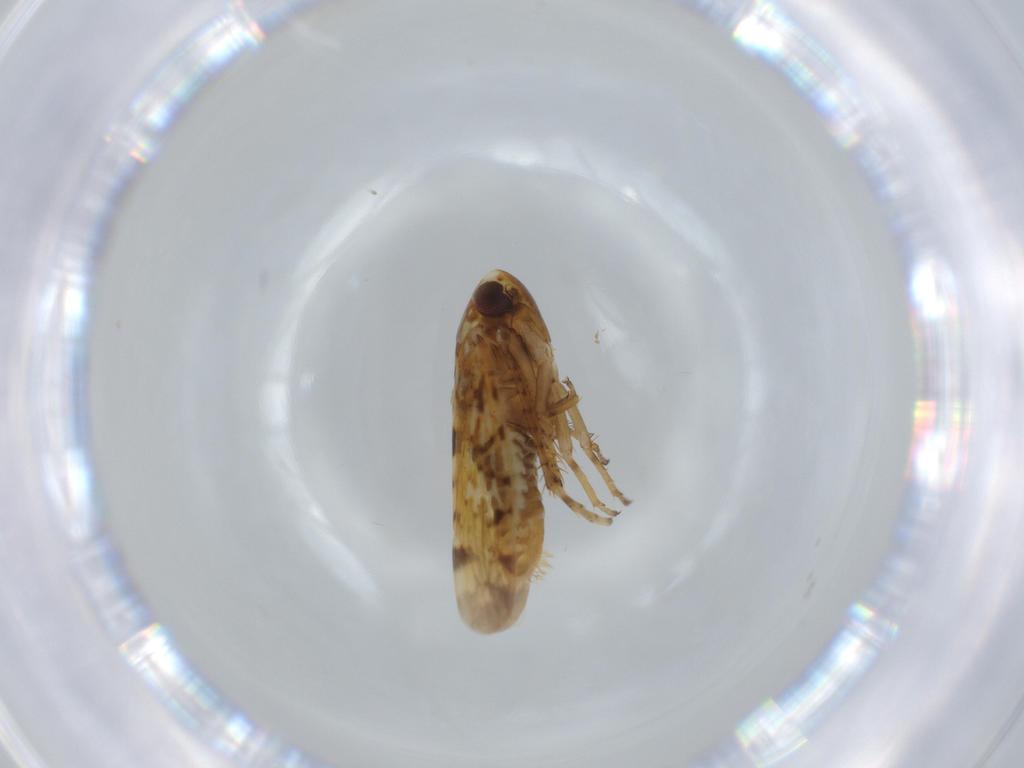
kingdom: Animalia
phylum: Arthropoda
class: Insecta
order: Hemiptera
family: Cicadellidae
